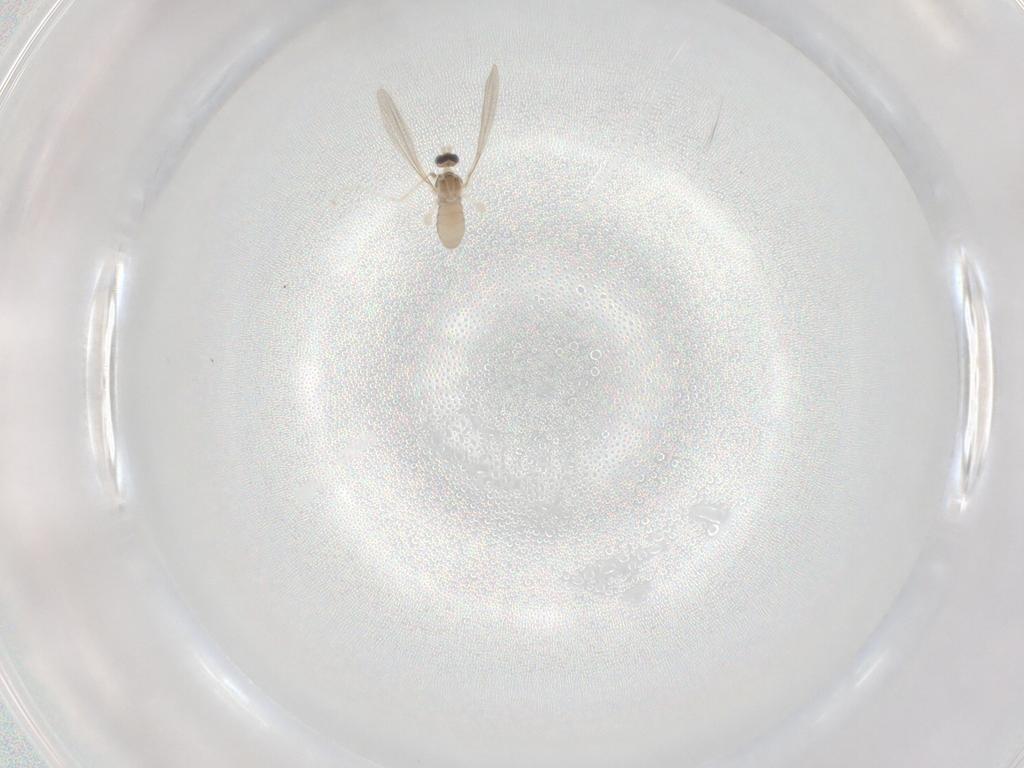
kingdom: Animalia
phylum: Arthropoda
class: Insecta
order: Diptera
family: Cecidomyiidae
